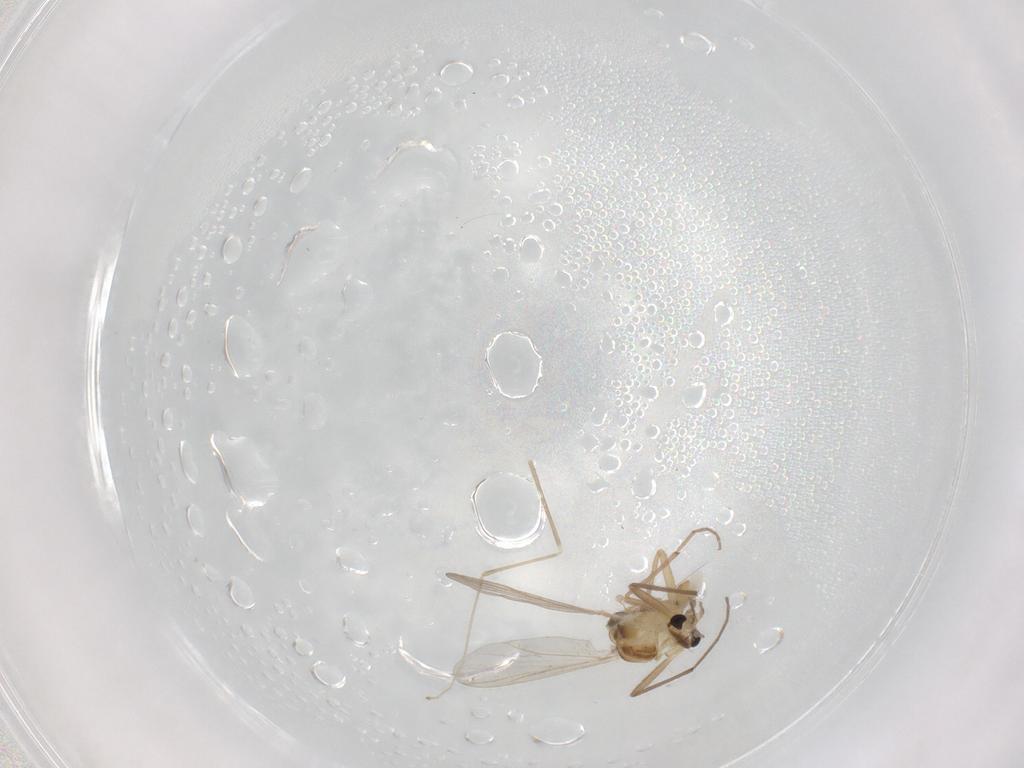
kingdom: Animalia
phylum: Arthropoda
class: Insecta
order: Diptera
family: Chironomidae
